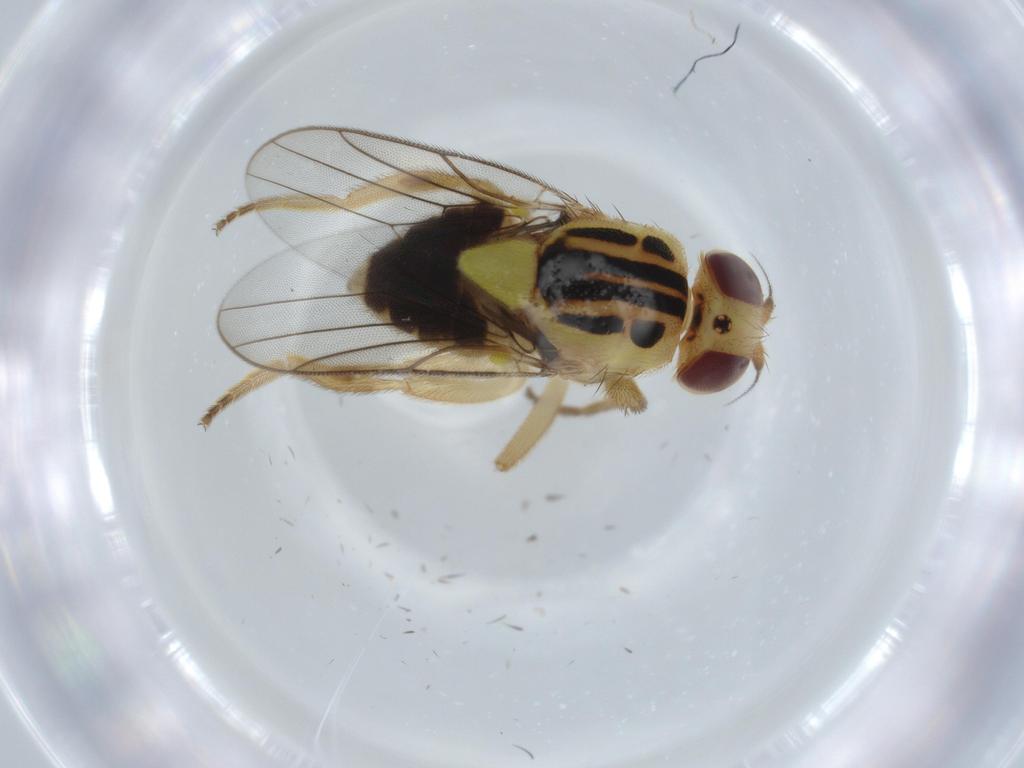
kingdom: Animalia
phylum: Arthropoda
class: Insecta
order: Diptera
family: Chloropidae
